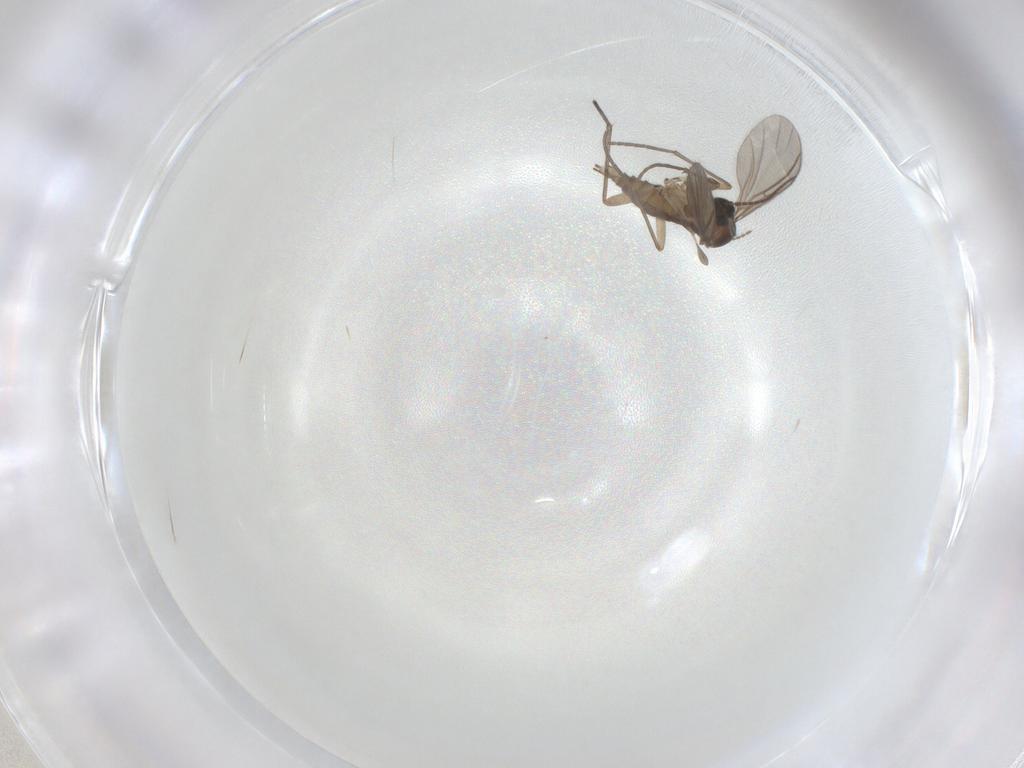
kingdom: Animalia
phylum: Arthropoda
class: Insecta
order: Diptera
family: Sciaridae
